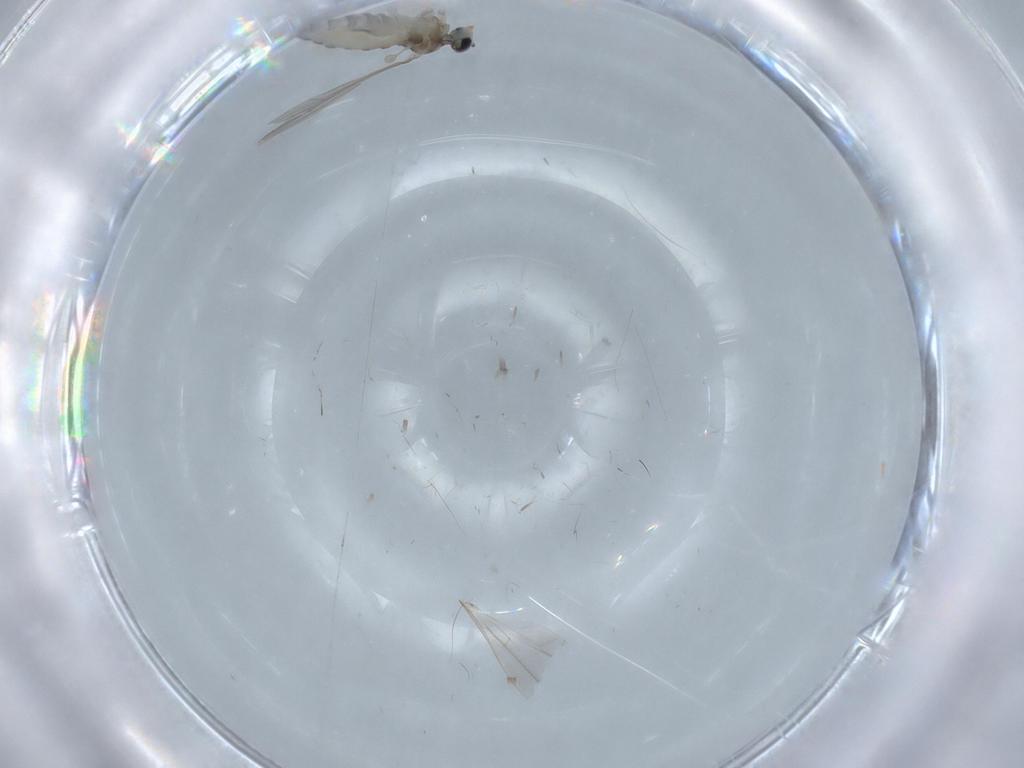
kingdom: Animalia
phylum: Arthropoda
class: Insecta
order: Diptera
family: Cecidomyiidae
